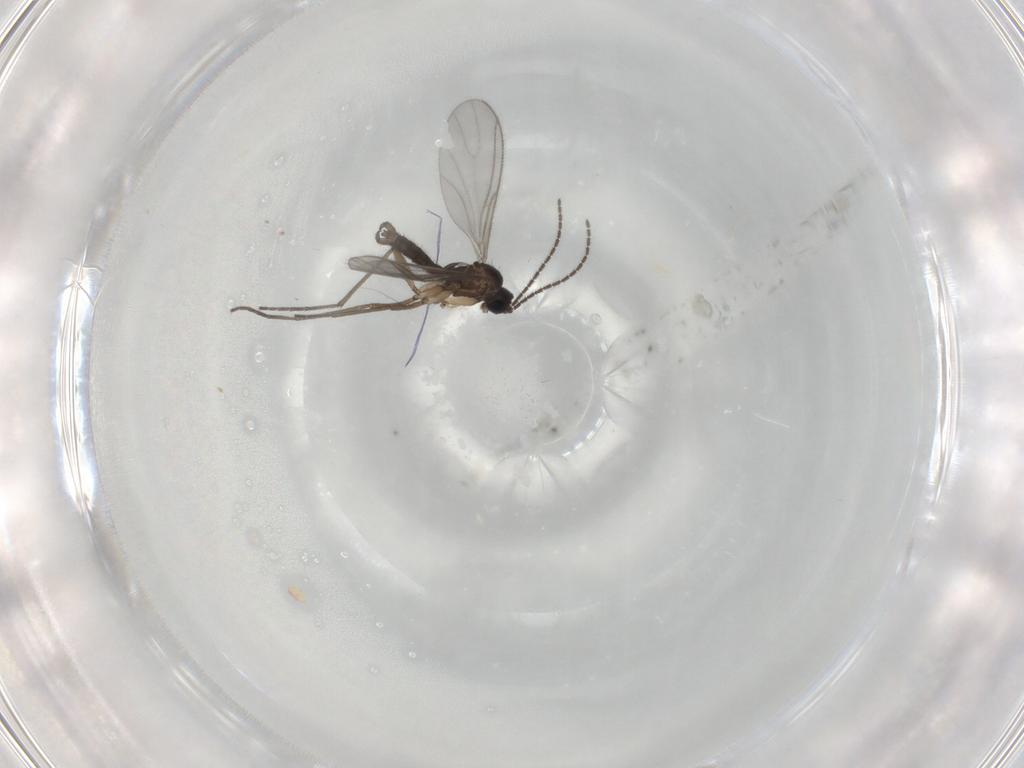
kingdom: Animalia
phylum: Arthropoda
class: Insecta
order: Diptera
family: Sciaridae
